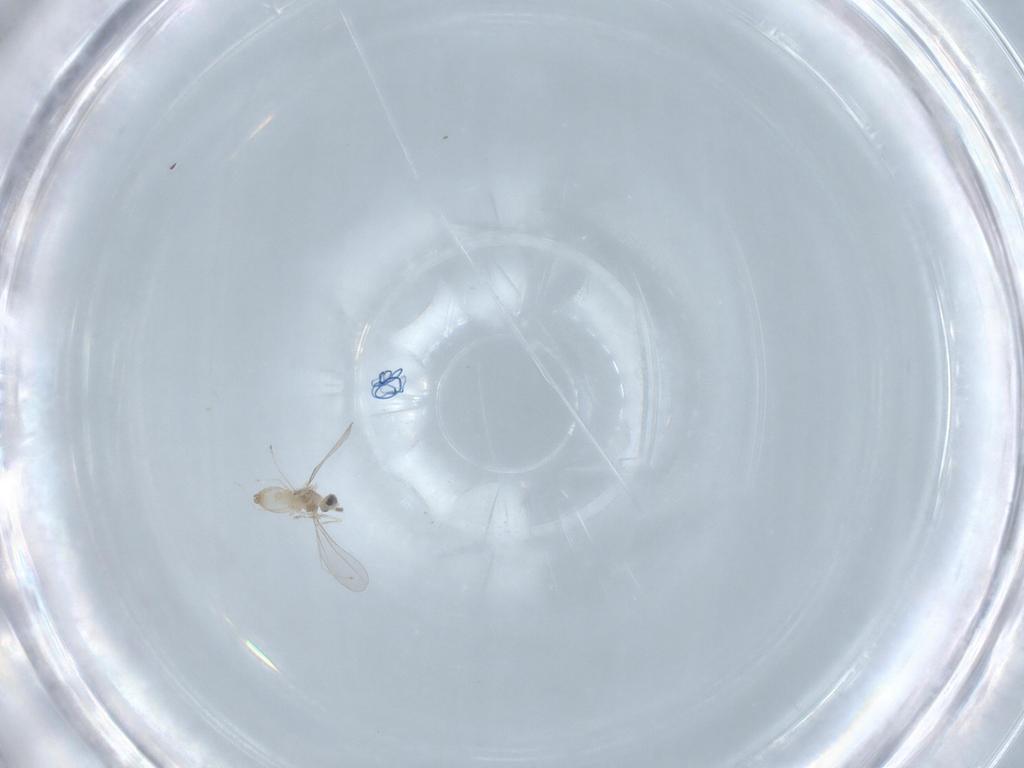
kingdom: Animalia
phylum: Arthropoda
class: Insecta
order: Diptera
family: Cecidomyiidae
